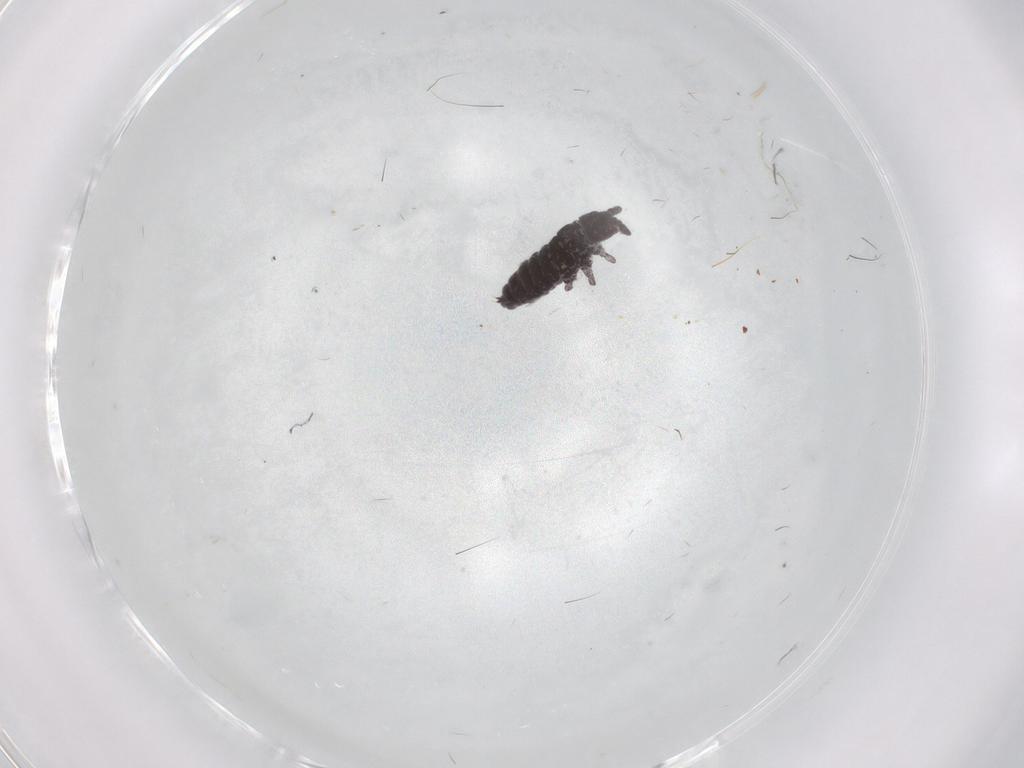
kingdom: Animalia
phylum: Arthropoda
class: Collembola
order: Poduromorpha
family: Hypogastruridae
